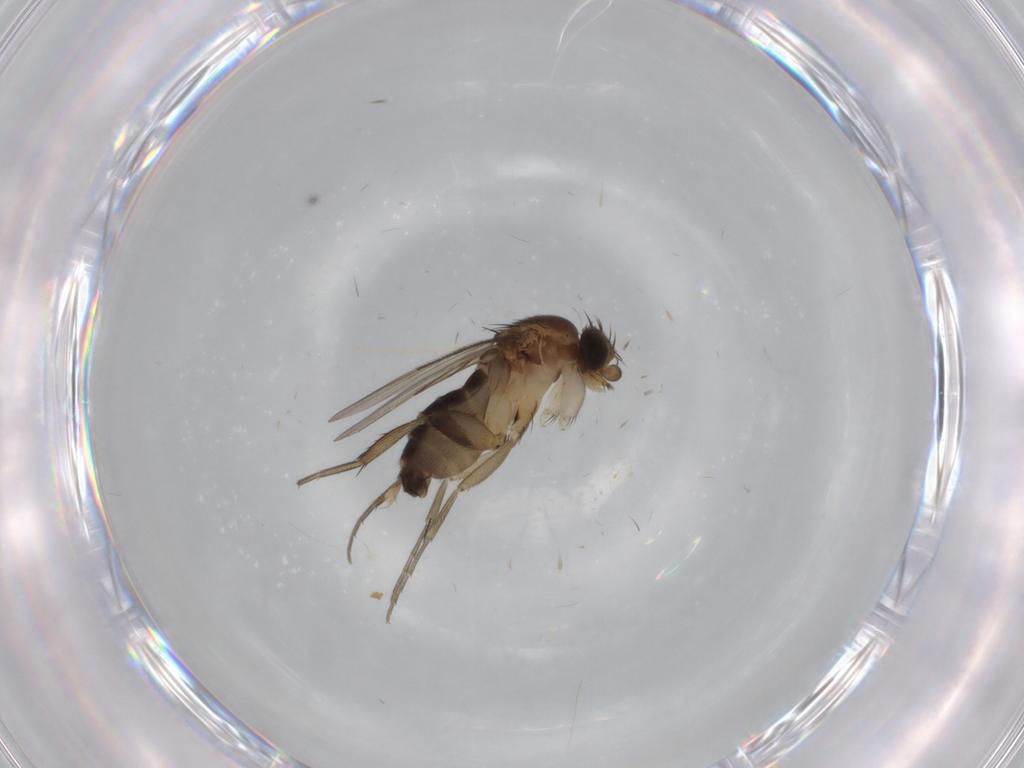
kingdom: Animalia
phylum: Arthropoda
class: Insecta
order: Diptera
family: Phoridae
